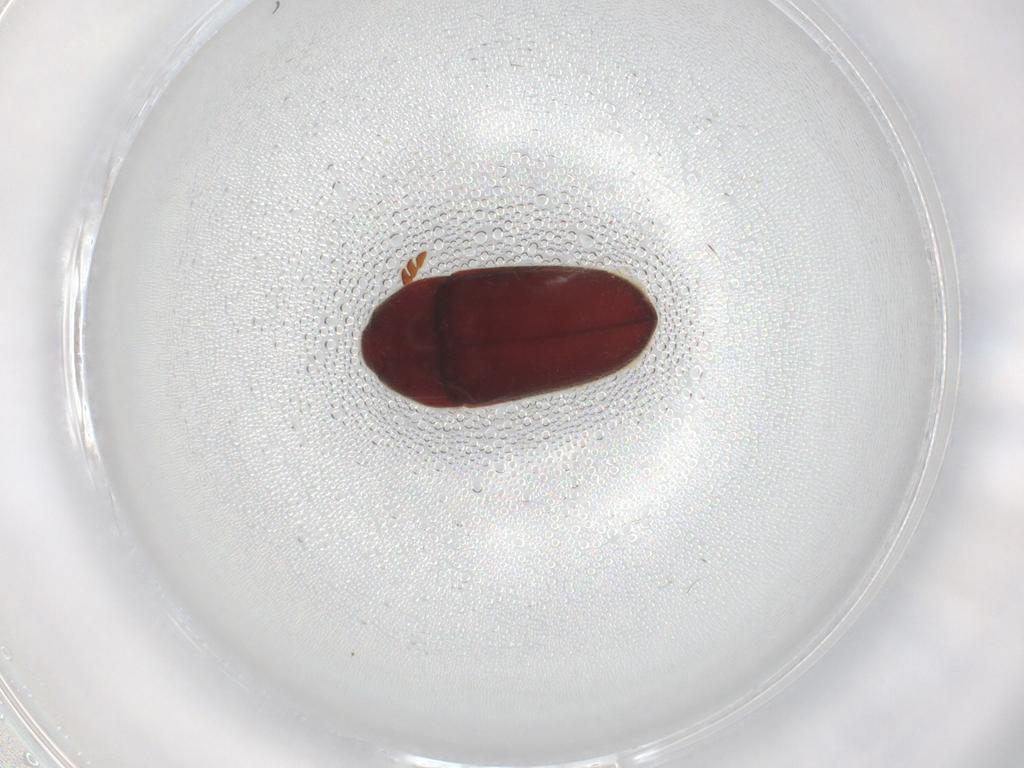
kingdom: Animalia
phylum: Arthropoda
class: Insecta
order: Coleoptera
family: Throscidae
